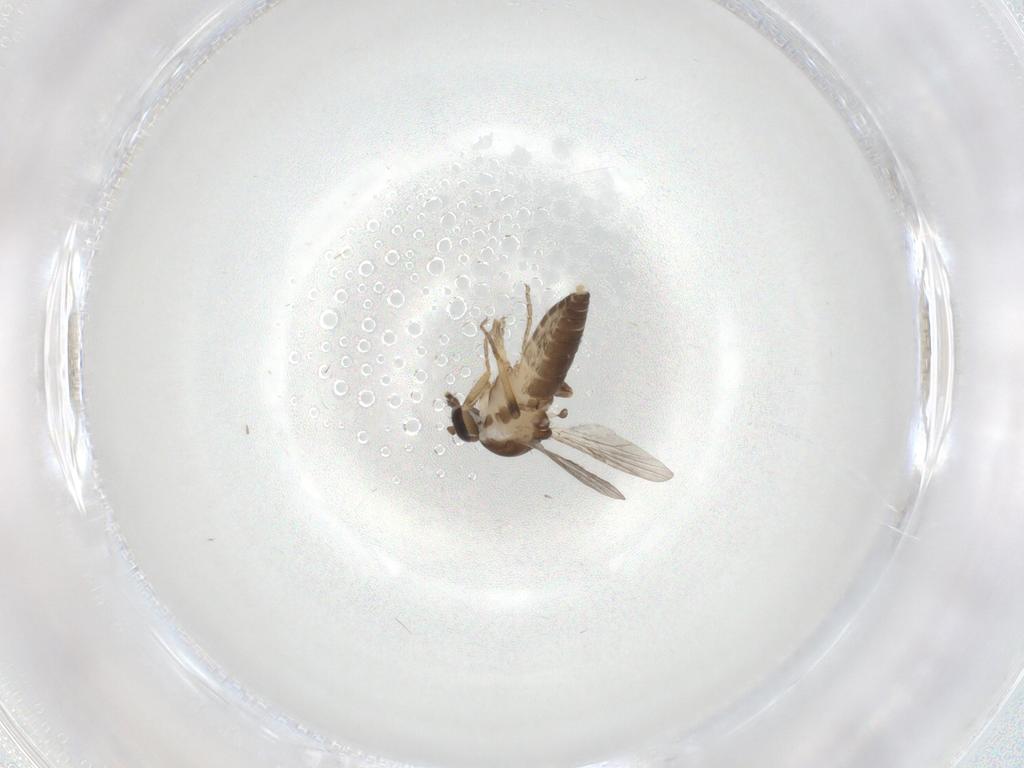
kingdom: Animalia
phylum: Arthropoda
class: Insecta
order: Diptera
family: Ceratopogonidae
